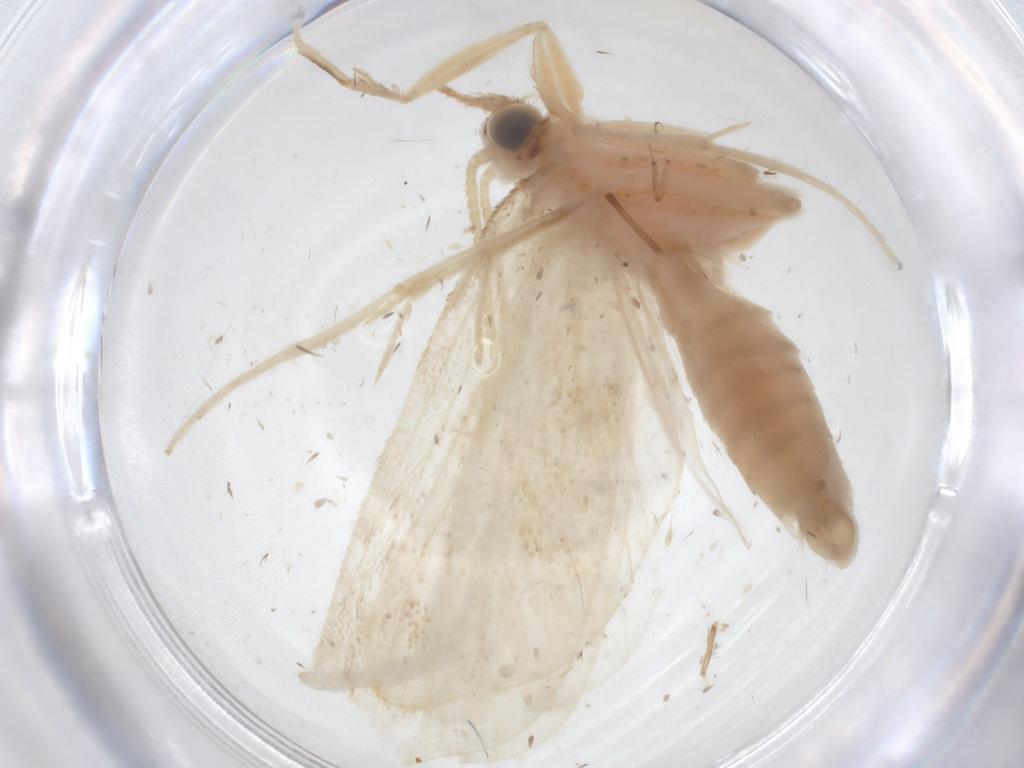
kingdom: Animalia
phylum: Arthropoda
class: Insecta
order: Lepidoptera
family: Crambidae
